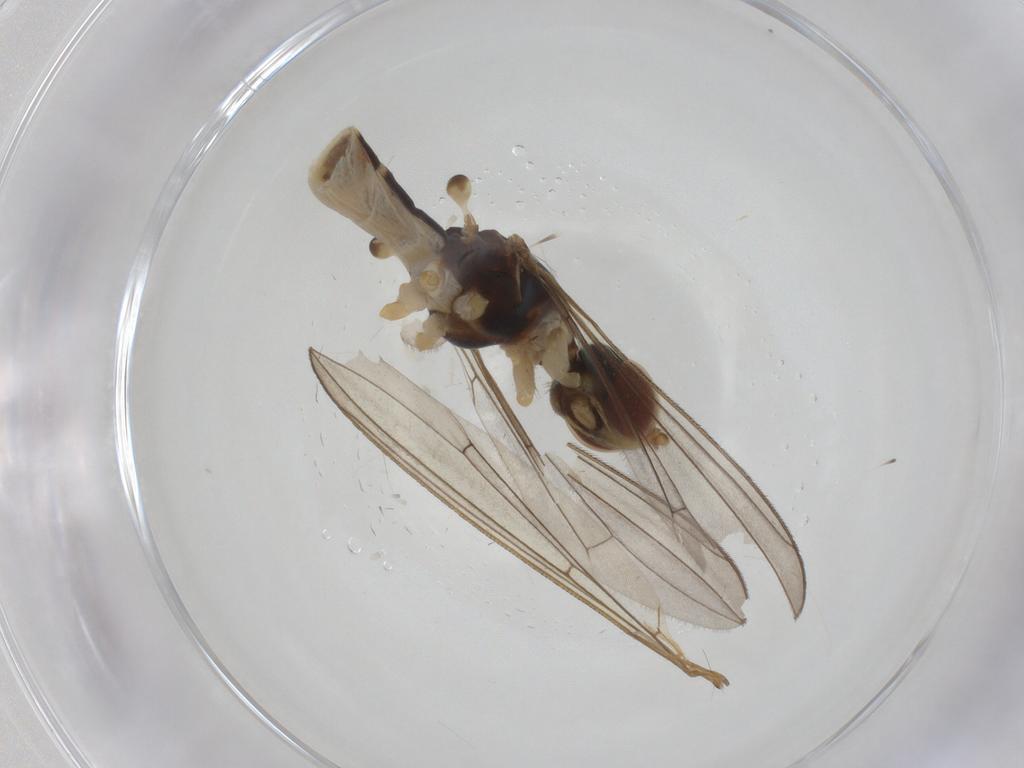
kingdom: Animalia
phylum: Arthropoda
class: Insecta
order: Diptera
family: Micropezidae
